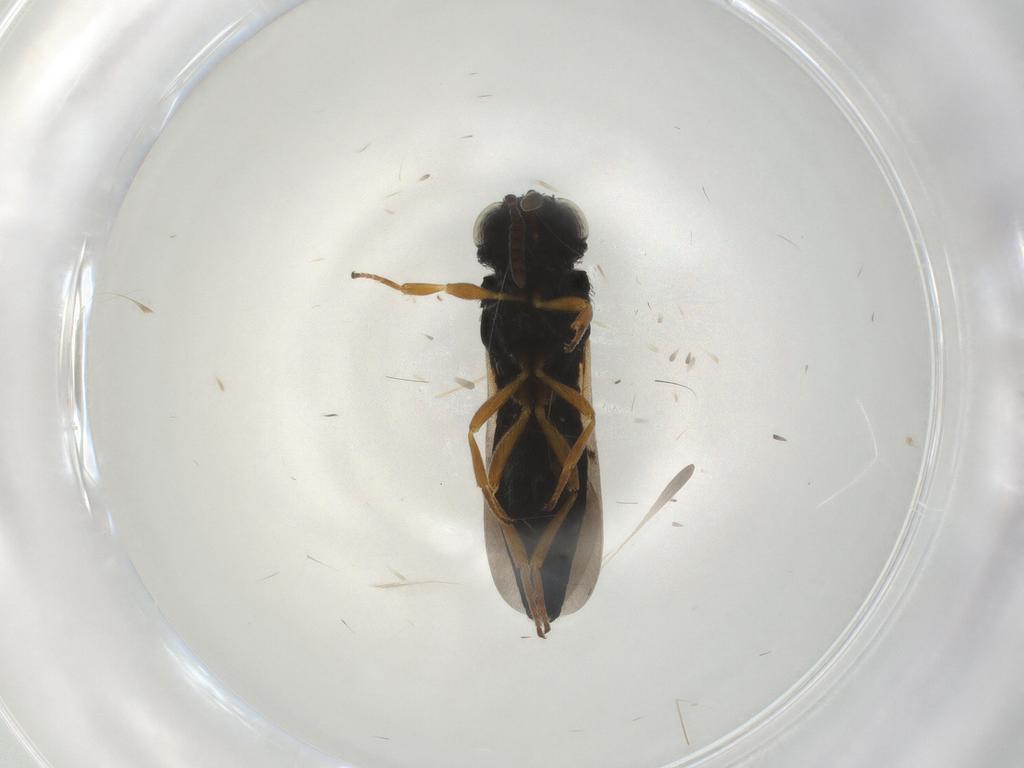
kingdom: Animalia
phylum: Arthropoda
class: Insecta
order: Hymenoptera
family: Scelionidae
